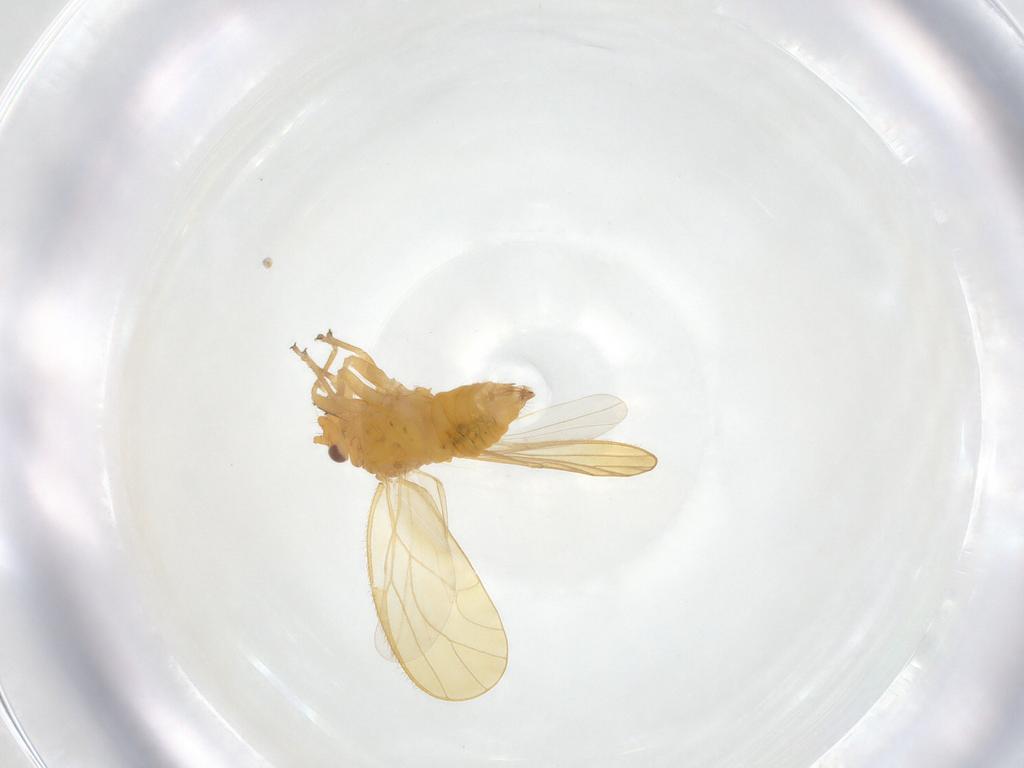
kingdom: Animalia
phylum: Arthropoda
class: Insecta
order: Hemiptera
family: Psyllidae
